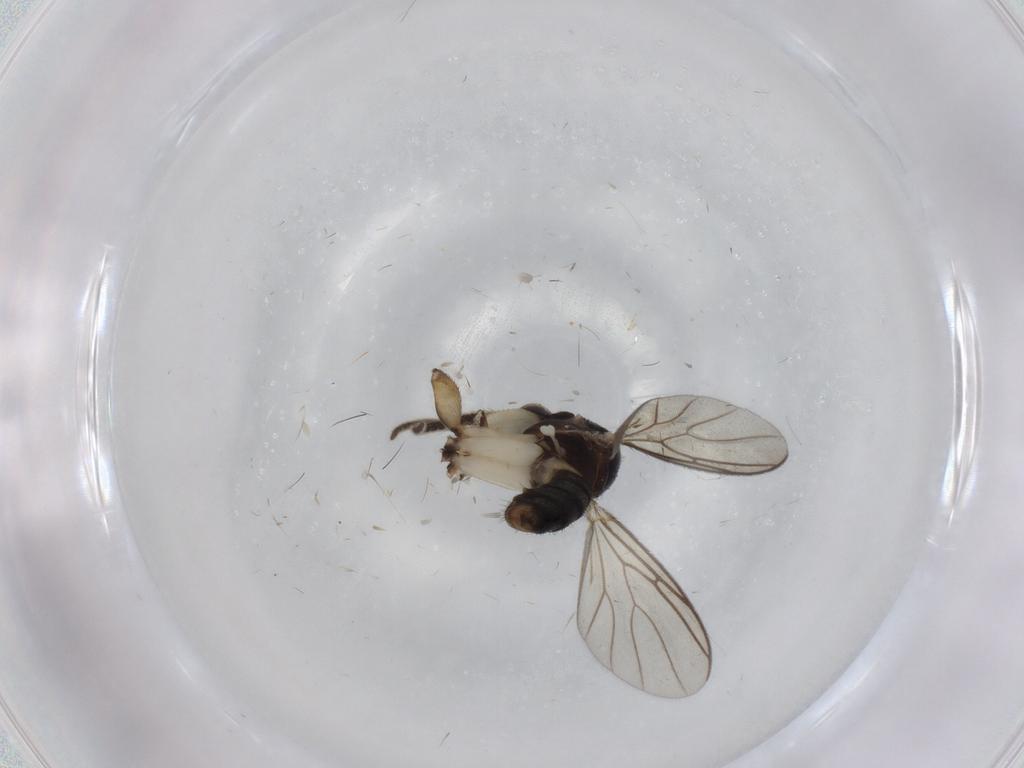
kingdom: Animalia
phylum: Arthropoda
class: Insecta
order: Diptera
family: Mycetophilidae
